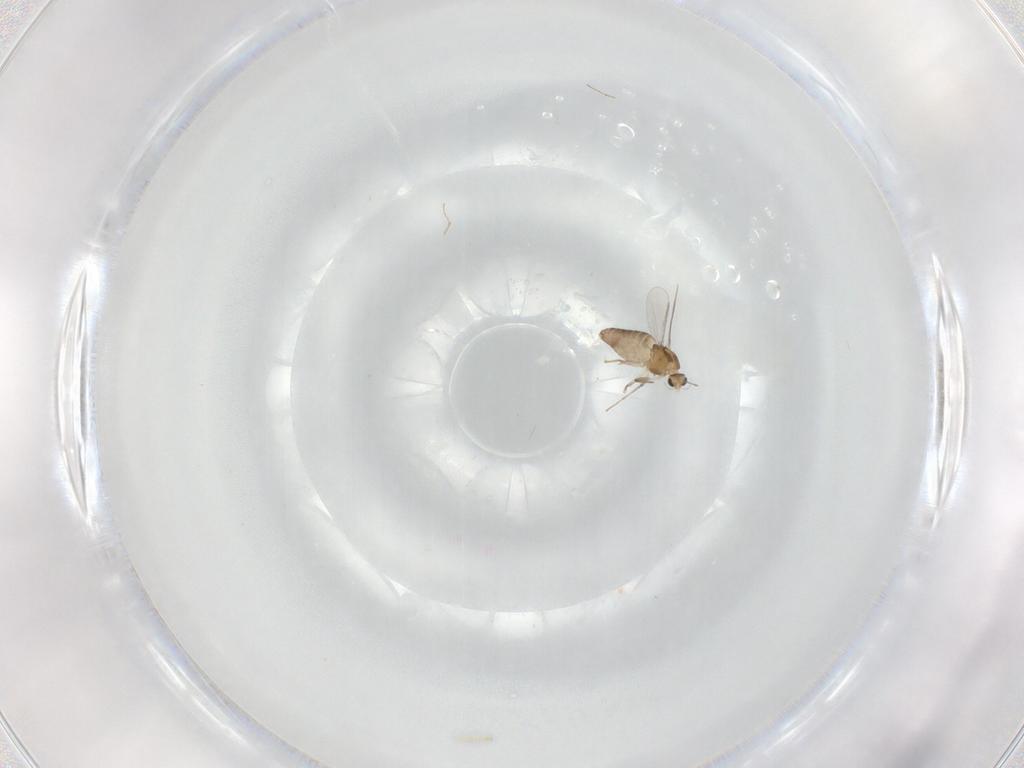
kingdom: Animalia
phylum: Arthropoda
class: Insecta
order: Diptera
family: Chironomidae
